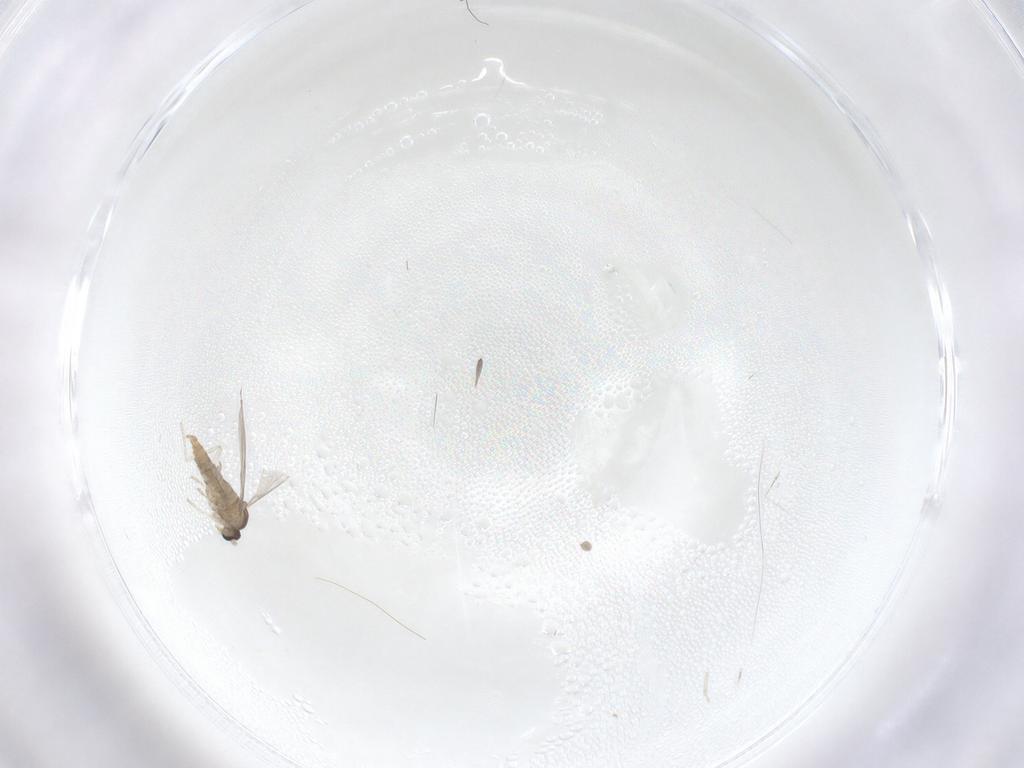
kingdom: Animalia
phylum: Arthropoda
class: Insecta
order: Diptera
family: Cecidomyiidae
